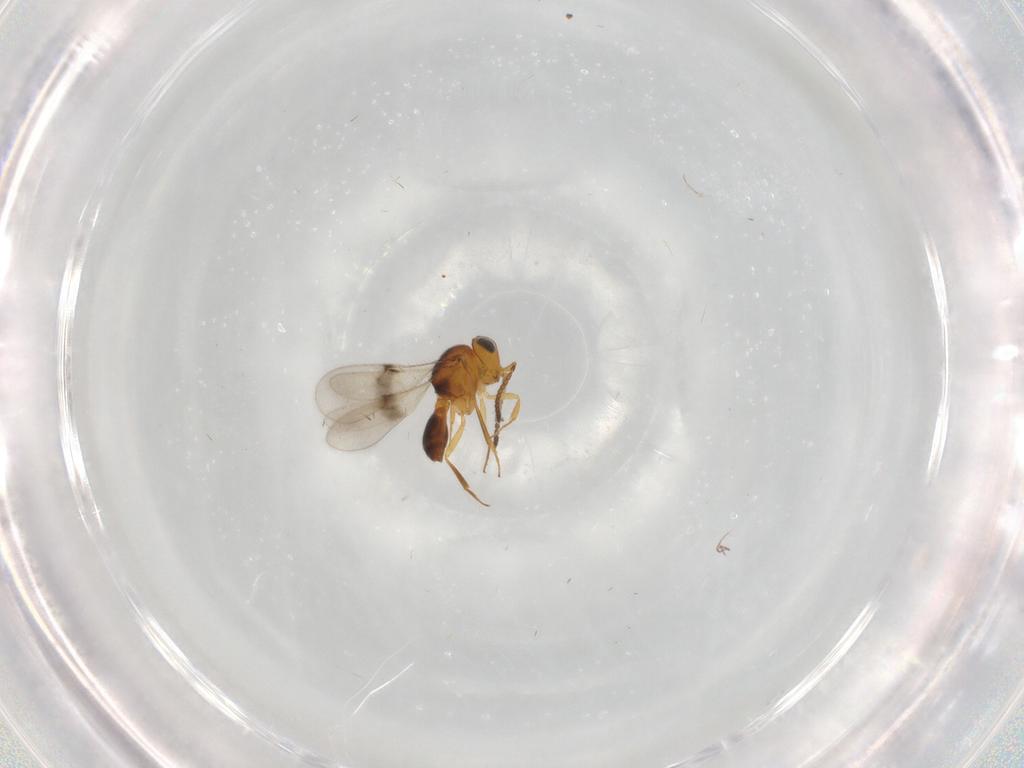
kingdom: Animalia
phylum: Arthropoda
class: Insecta
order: Hymenoptera
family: Scelionidae
